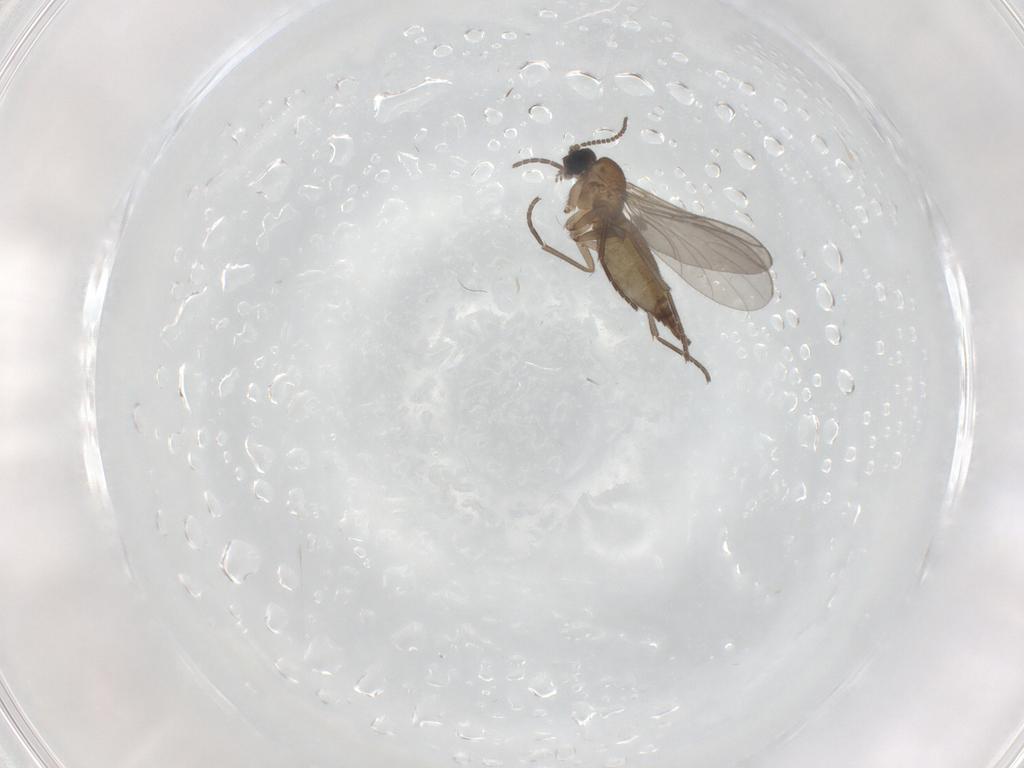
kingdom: Animalia
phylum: Arthropoda
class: Insecta
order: Diptera
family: Sciaridae
